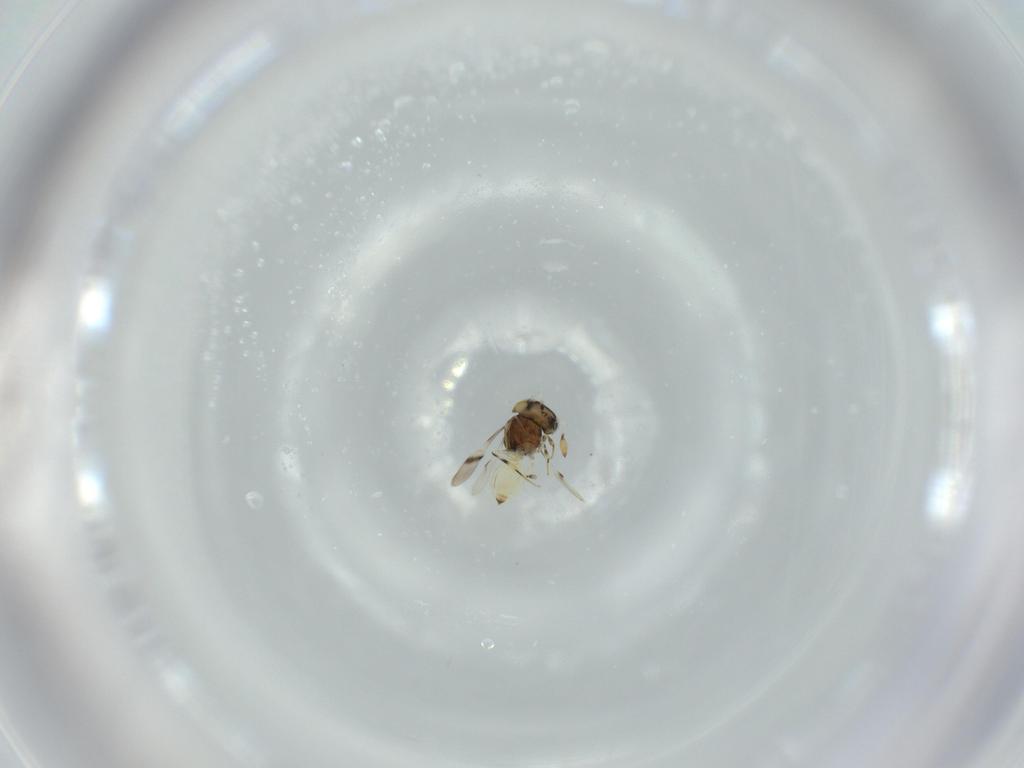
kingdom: Animalia
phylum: Arthropoda
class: Insecta
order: Hymenoptera
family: Scelionidae
